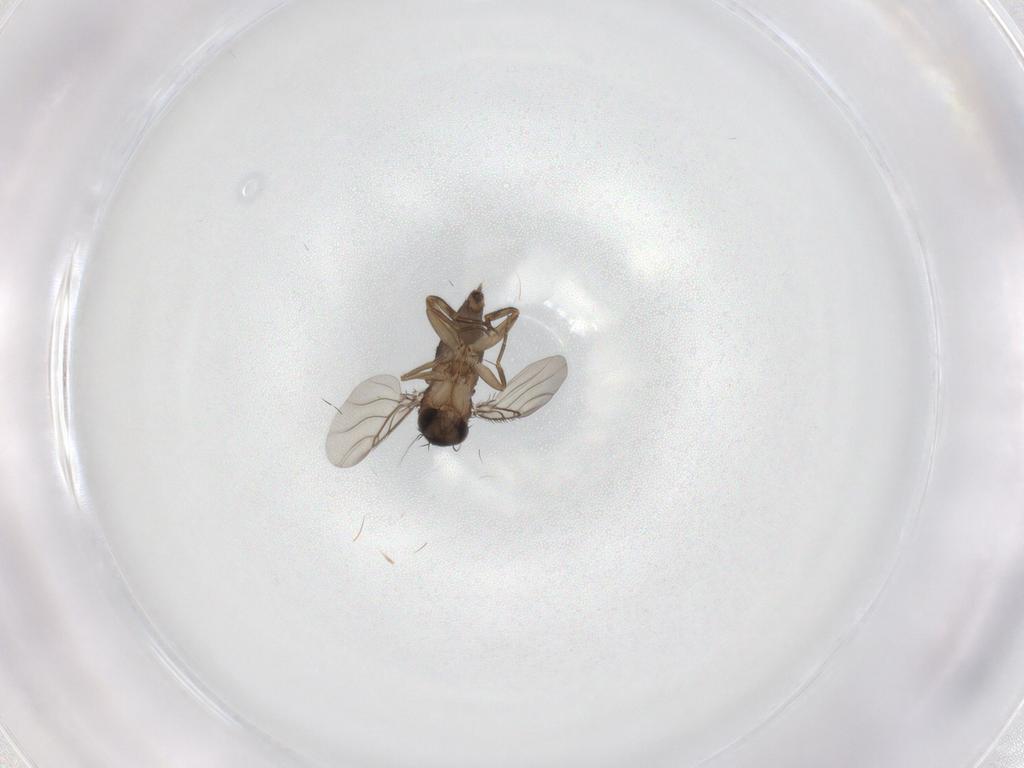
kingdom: Animalia
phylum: Arthropoda
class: Insecta
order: Diptera
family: Phoridae
